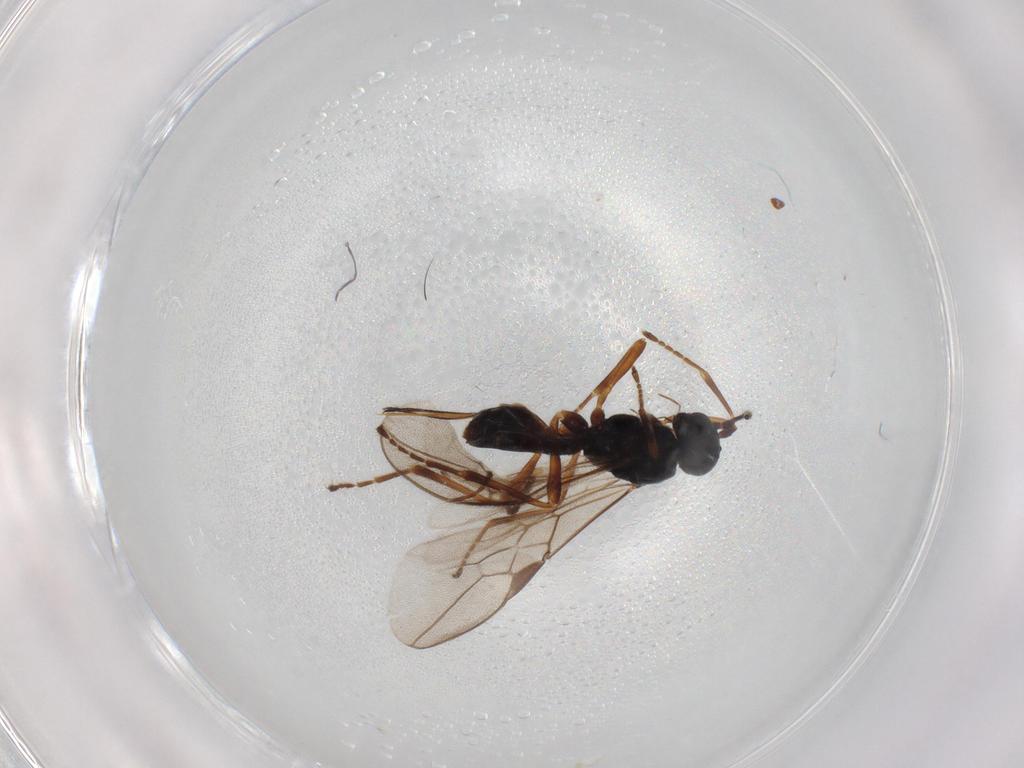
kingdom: Animalia
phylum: Arthropoda
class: Insecta
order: Hymenoptera
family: Braconidae
